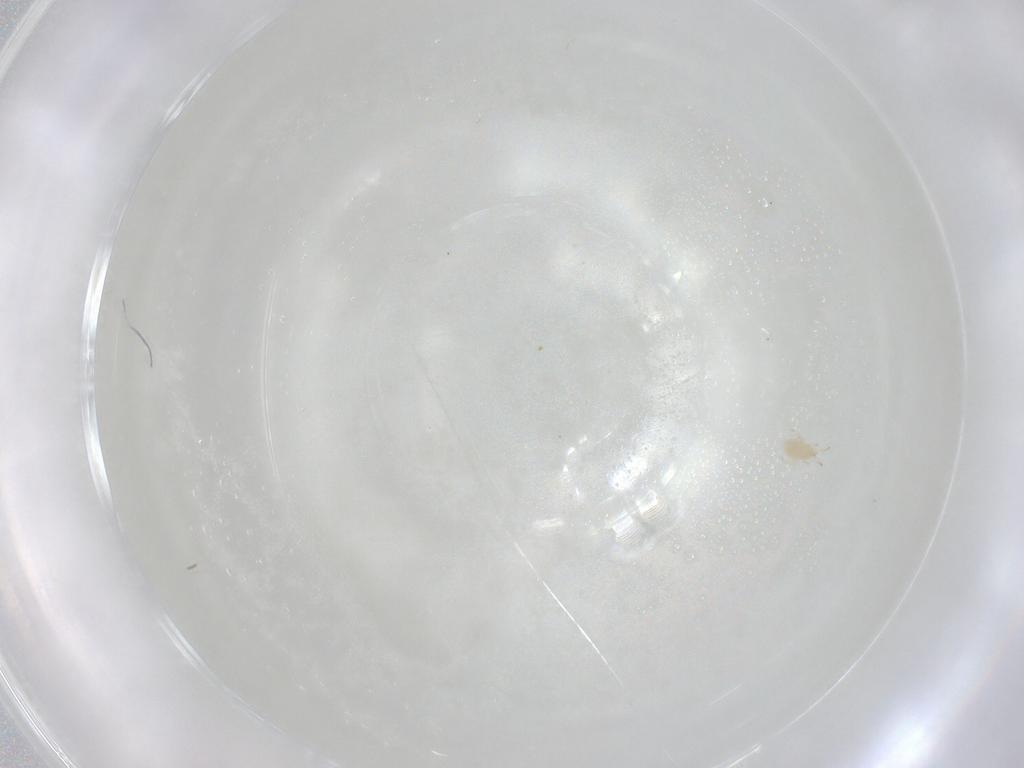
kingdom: Animalia
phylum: Arthropoda
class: Arachnida
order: Mesostigmata
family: Phytoseiidae
